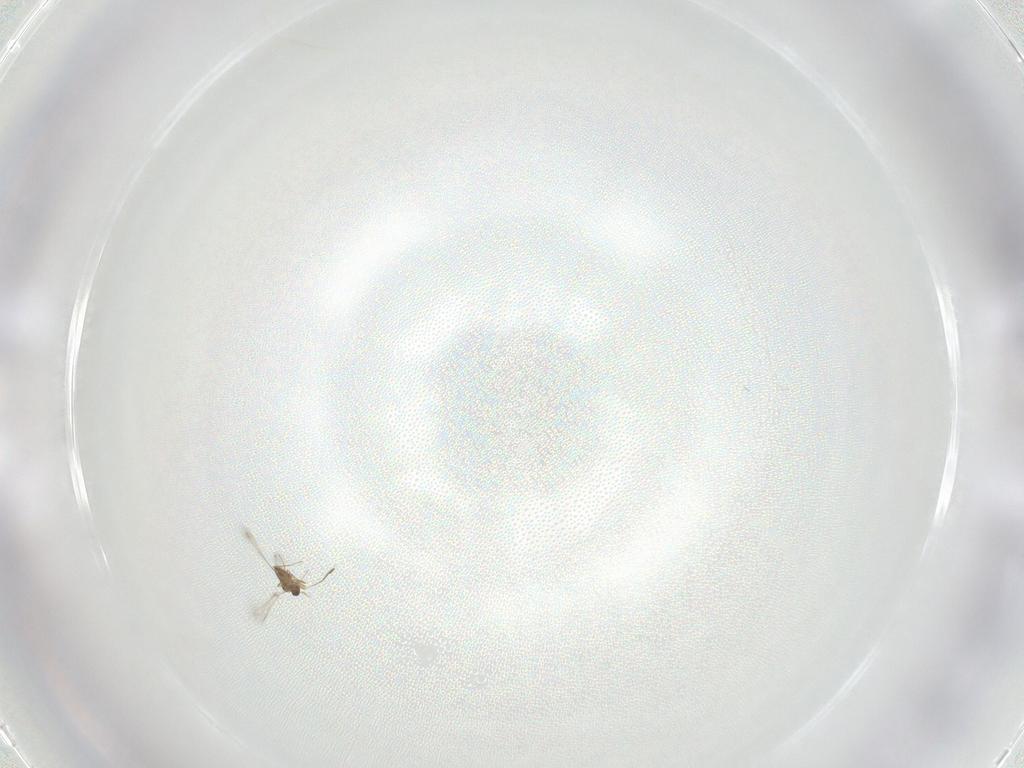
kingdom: Animalia
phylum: Arthropoda
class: Insecta
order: Hymenoptera
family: Mymaridae
